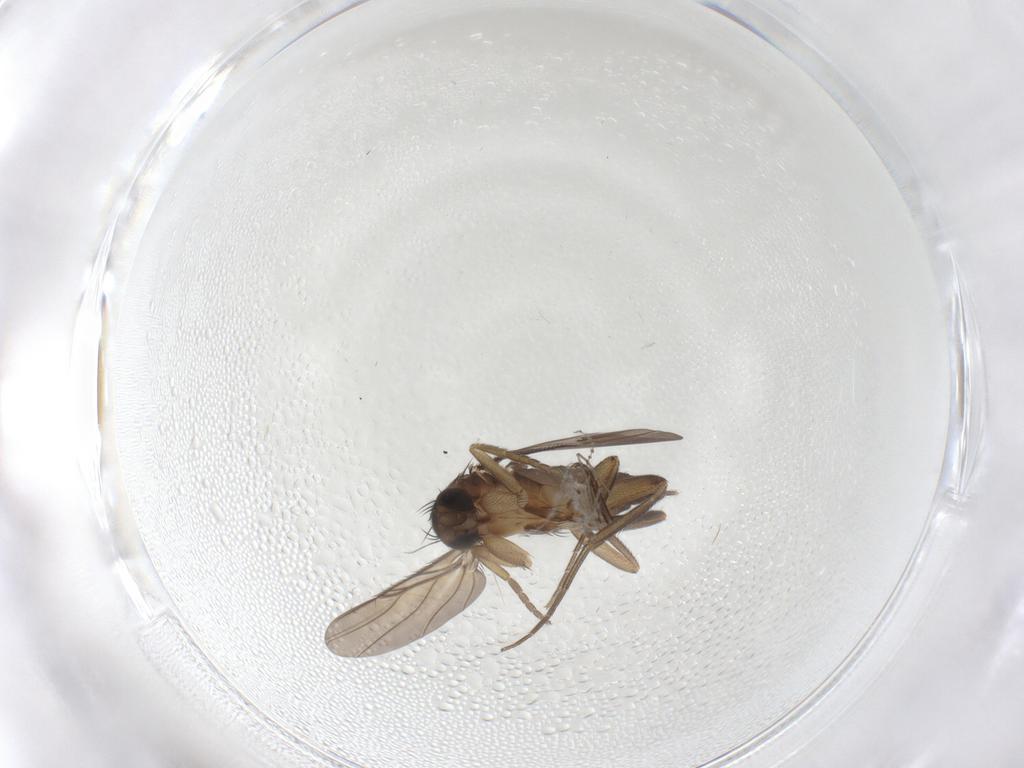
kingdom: Animalia
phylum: Arthropoda
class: Insecta
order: Diptera
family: Phoridae
